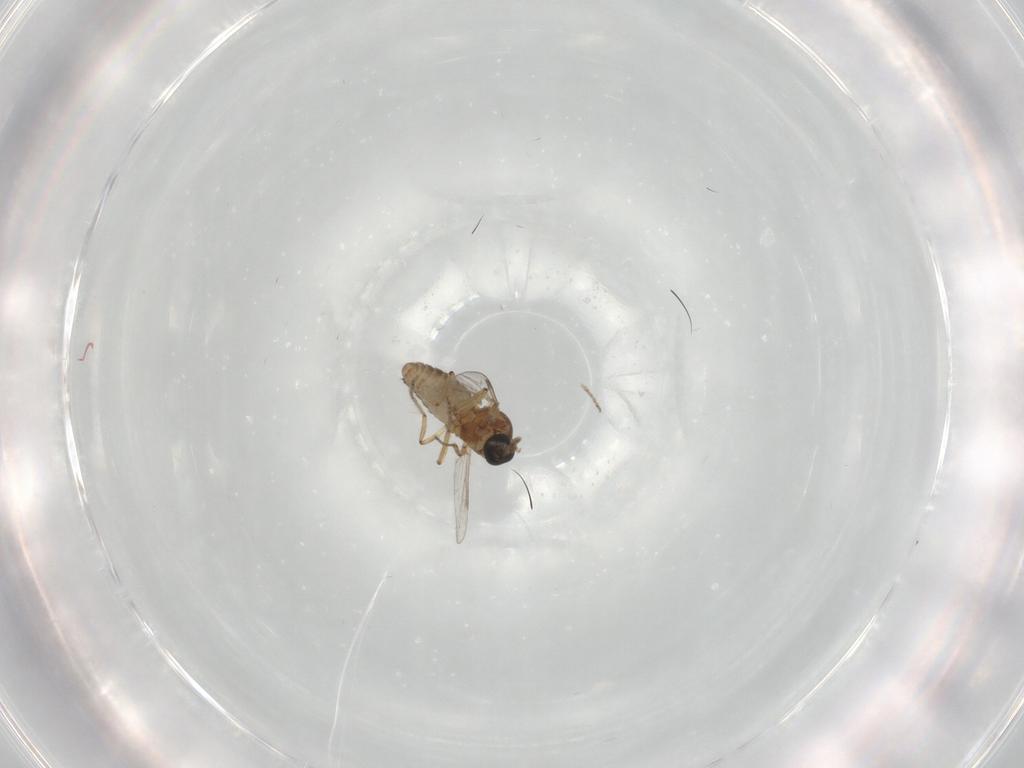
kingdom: Animalia
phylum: Arthropoda
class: Insecta
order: Diptera
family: Ceratopogonidae
